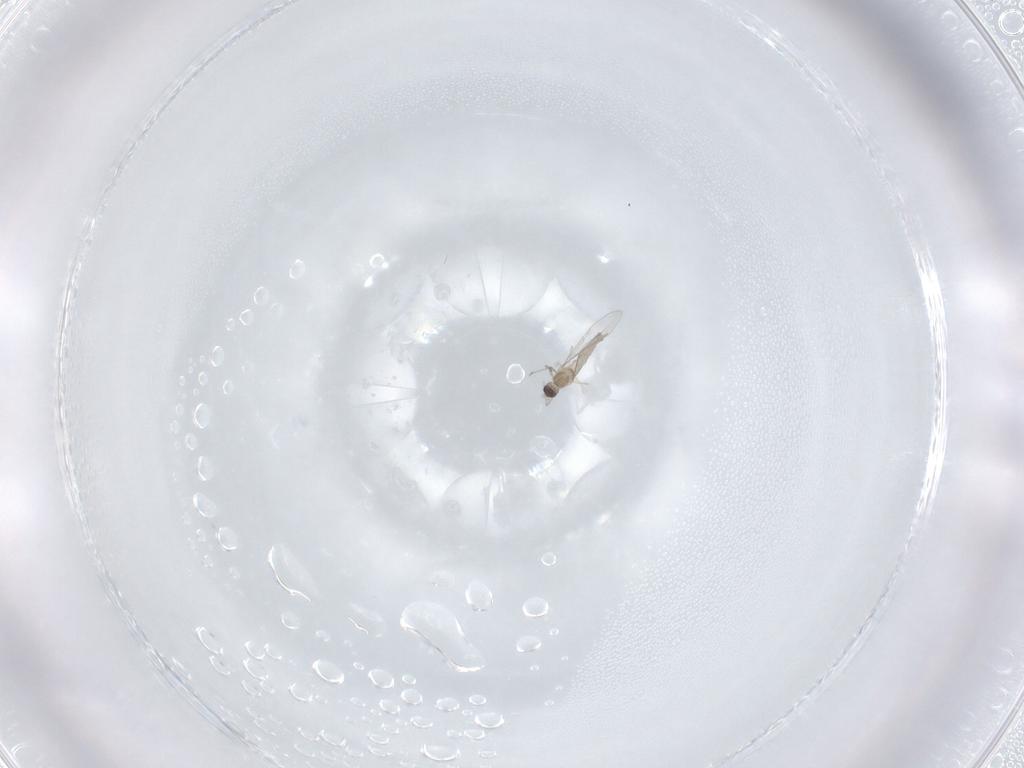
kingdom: Animalia
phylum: Arthropoda
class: Insecta
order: Diptera
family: Cecidomyiidae
